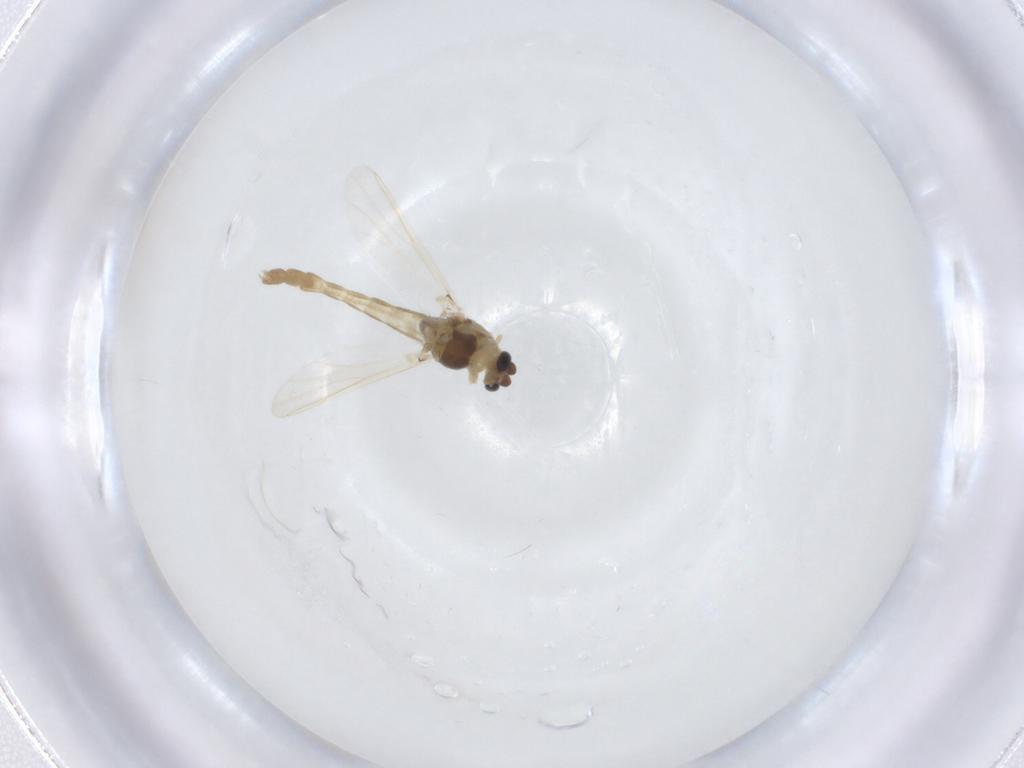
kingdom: Animalia
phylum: Arthropoda
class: Insecta
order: Diptera
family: Chironomidae
